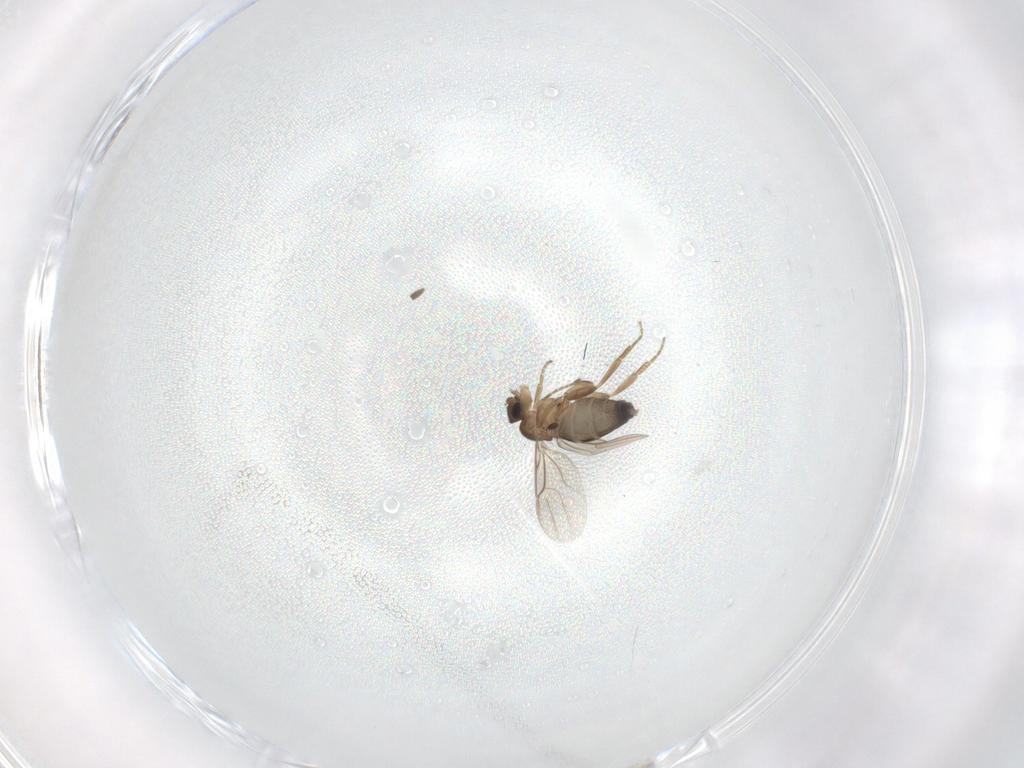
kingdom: Animalia
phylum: Arthropoda
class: Insecta
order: Diptera
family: Phoridae
